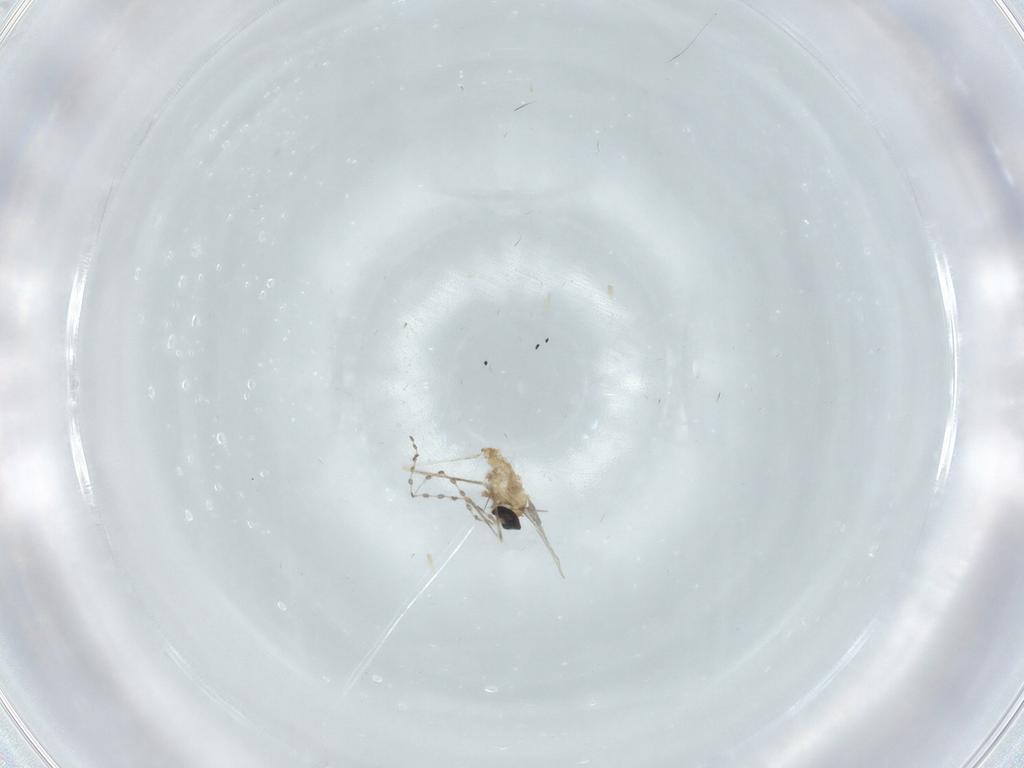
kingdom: Animalia
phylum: Arthropoda
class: Insecta
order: Diptera
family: Cecidomyiidae
